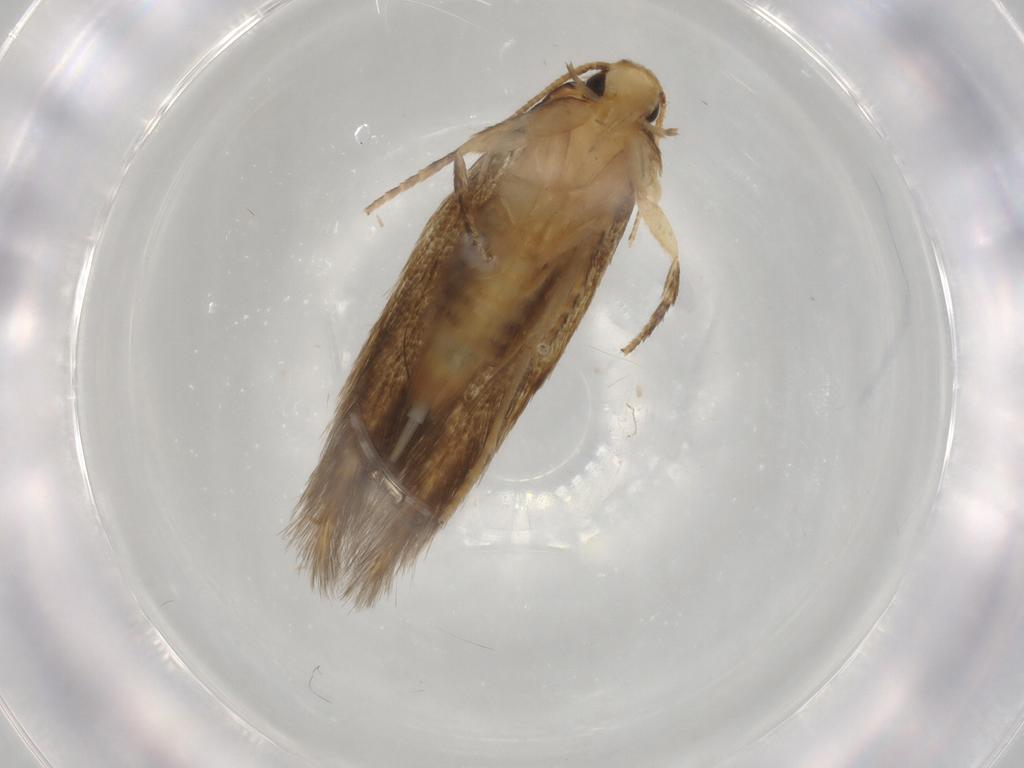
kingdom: Animalia
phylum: Arthropoda
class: Insecta
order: Lepidoptera
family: Tineidae
